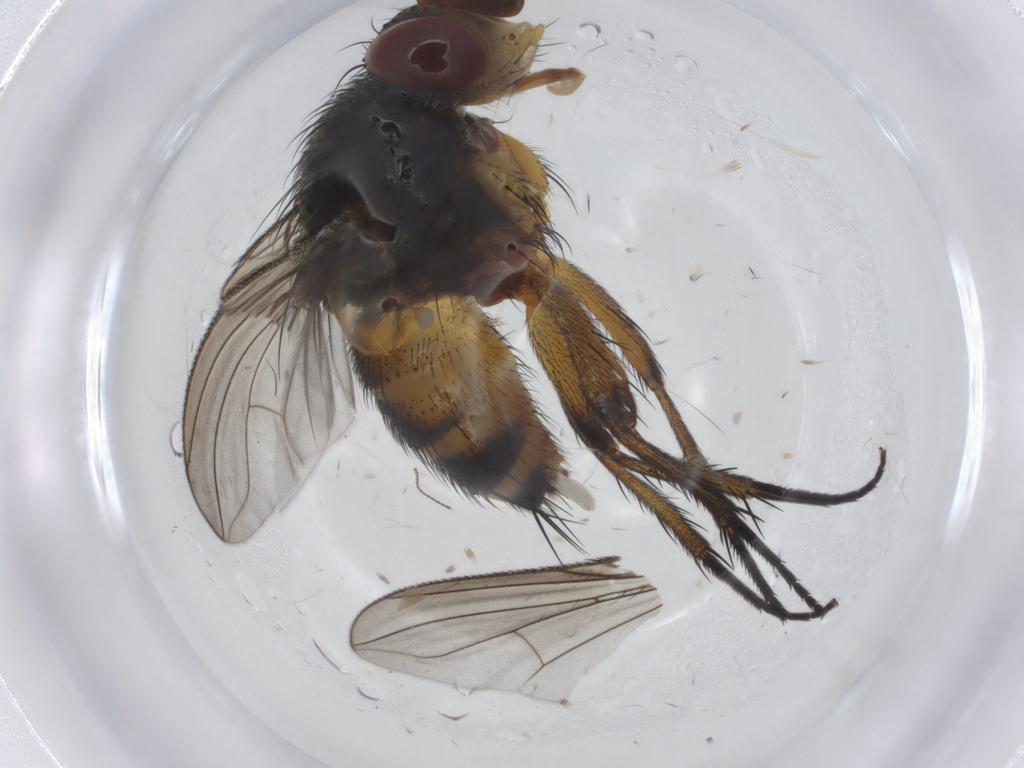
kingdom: Animalia
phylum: Arthropoda
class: Insecta
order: Diptera
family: Tachinidae
